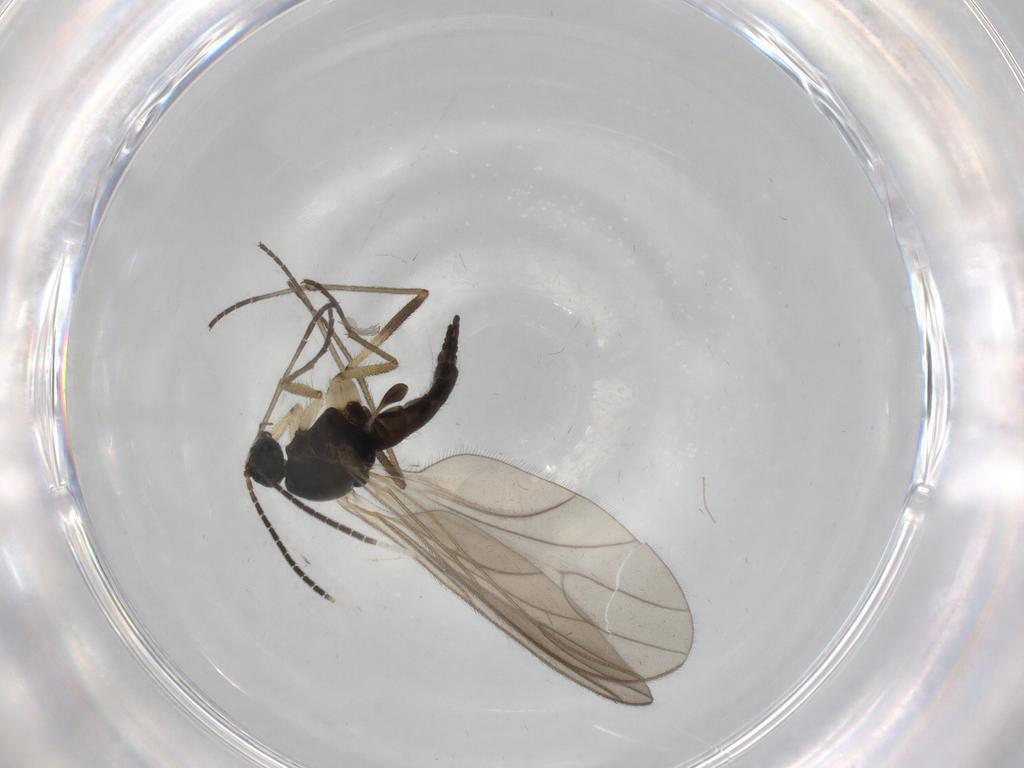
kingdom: Animalia
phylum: Arthropoda
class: Insecta
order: Diptera
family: Sciaridae
